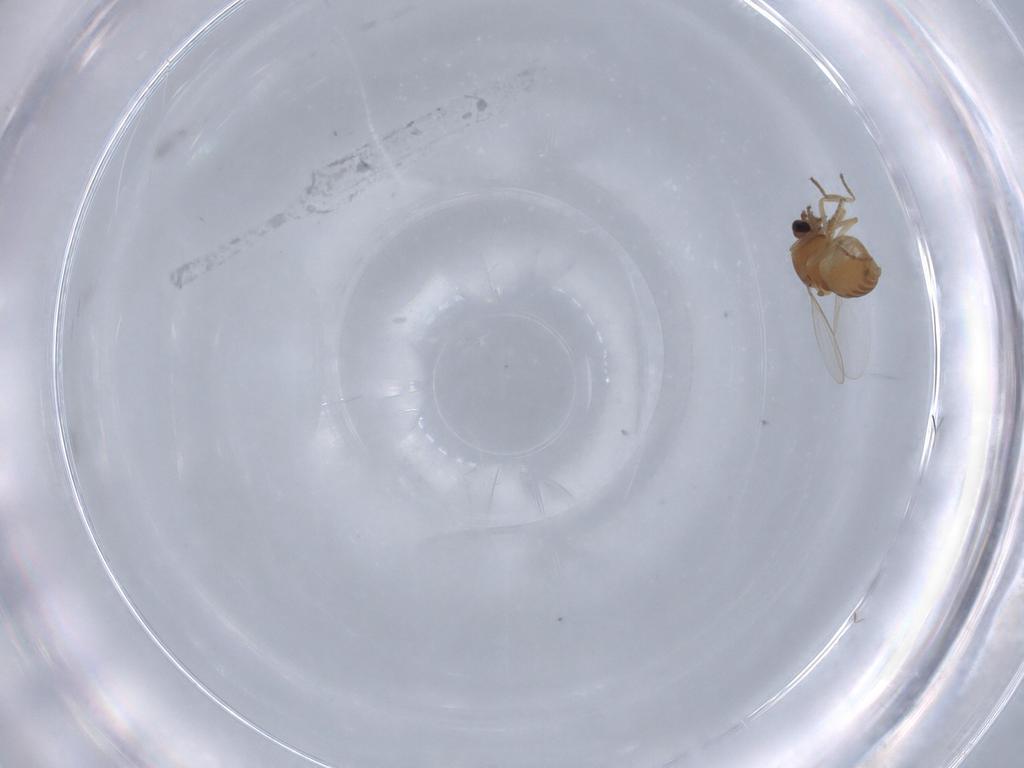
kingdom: Animalia
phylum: Arthropoda
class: Insecta
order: Diptera
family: Ceratopogonidae
